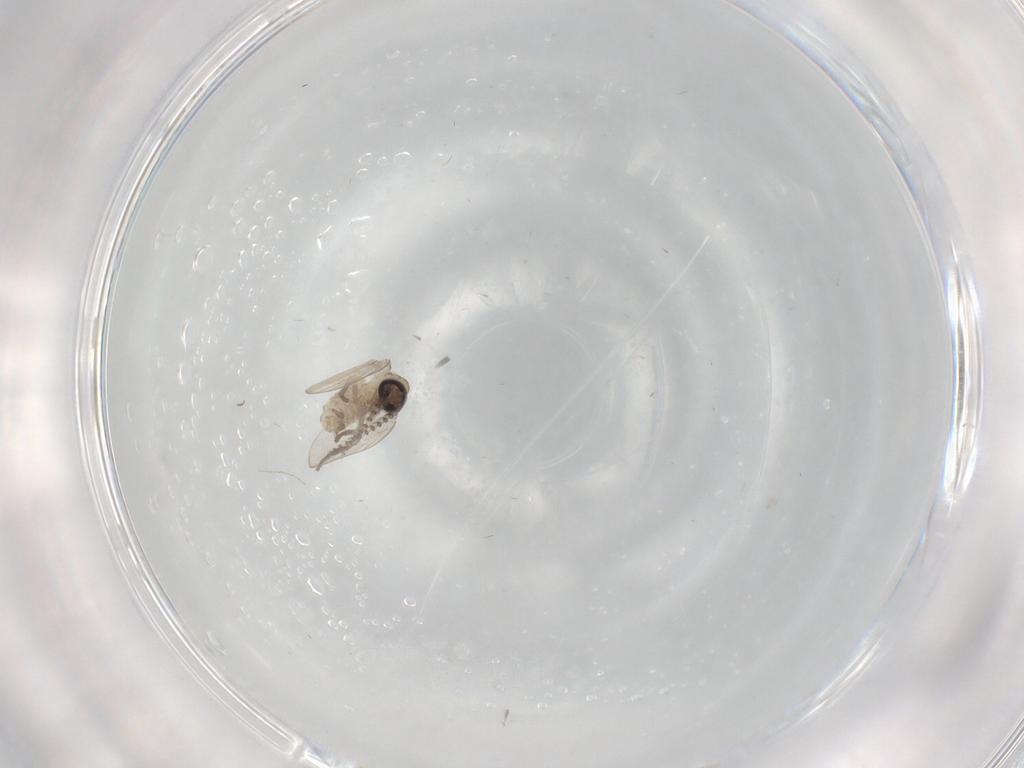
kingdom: Animalia
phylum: Arthropoda
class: Insecta
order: Diptera
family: Psychodidae
